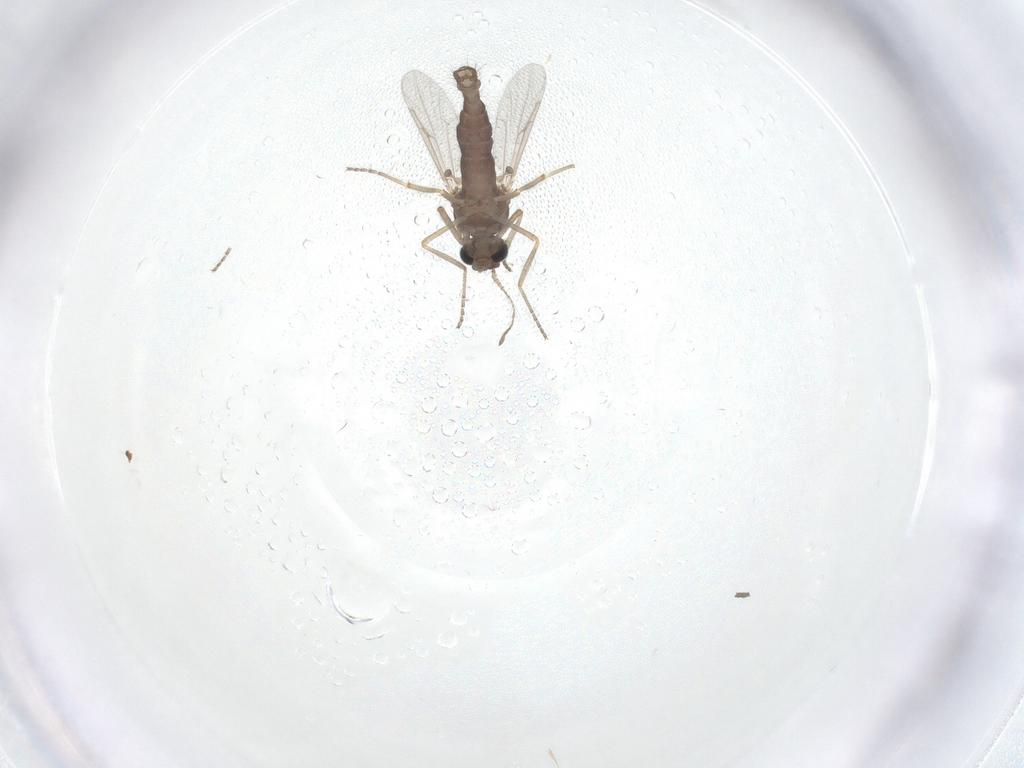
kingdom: Animalia
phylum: Arthropoda
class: Insecta
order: Diptera
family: Ceratopogonidae
